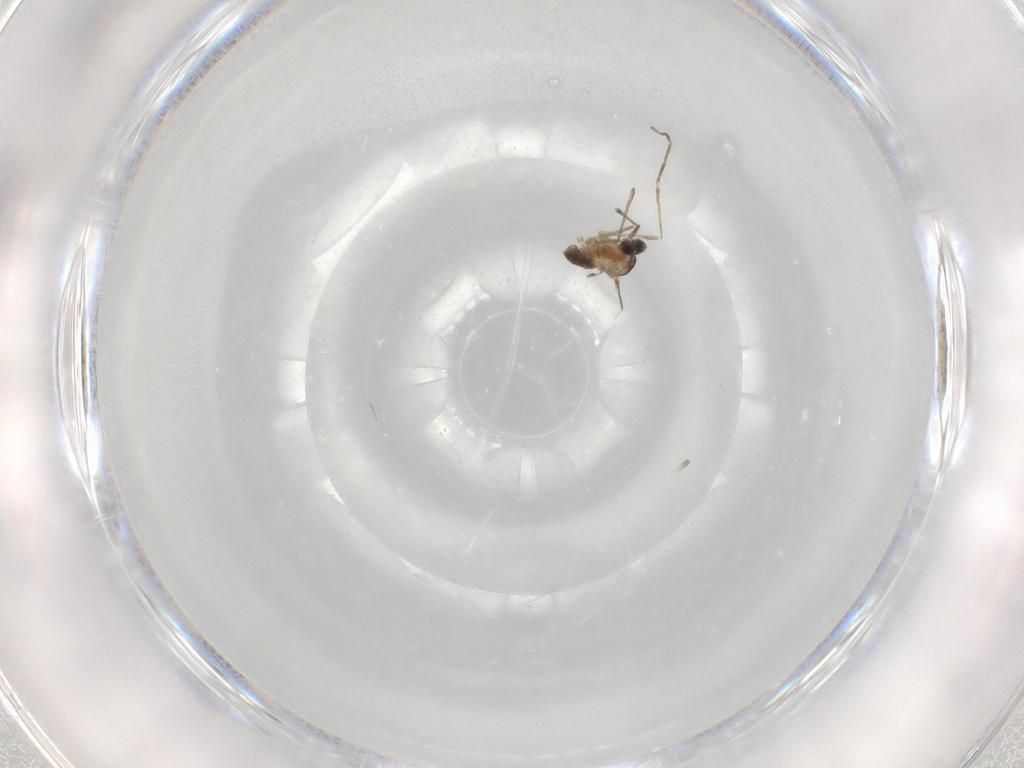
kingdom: Animalia
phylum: Arthropoda
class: Insecta
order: Diptera
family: Cecidomyiidae
